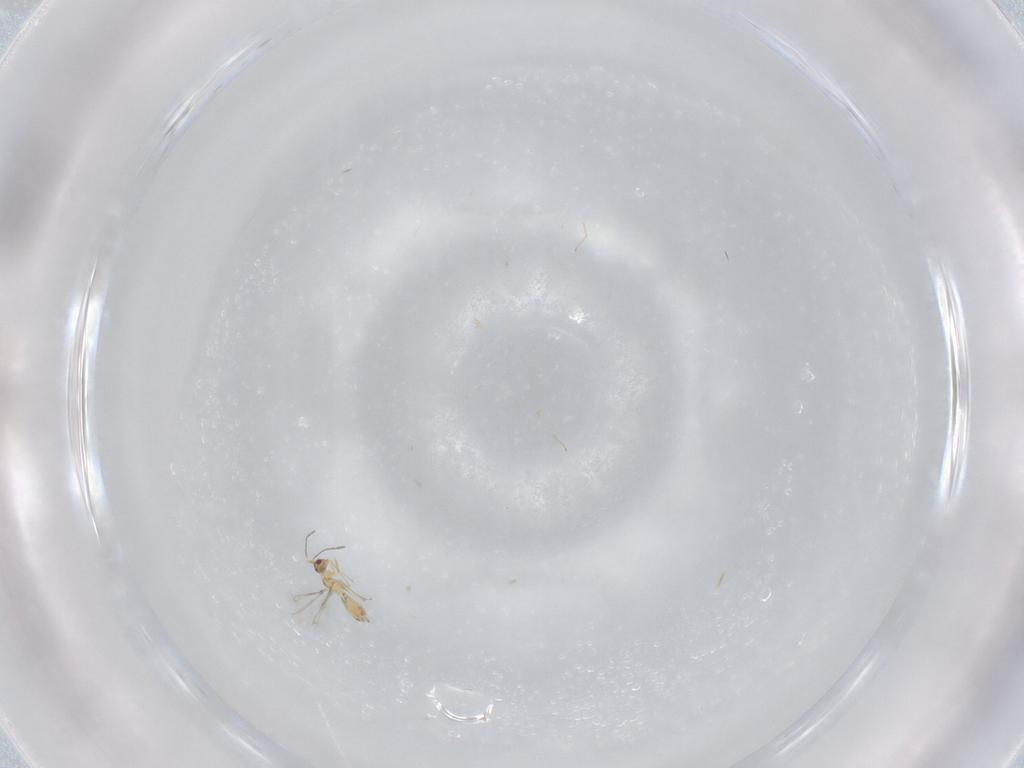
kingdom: Animalia
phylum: Arthropoda
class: Insecta
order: Hymenoptera
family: Mymaridae
